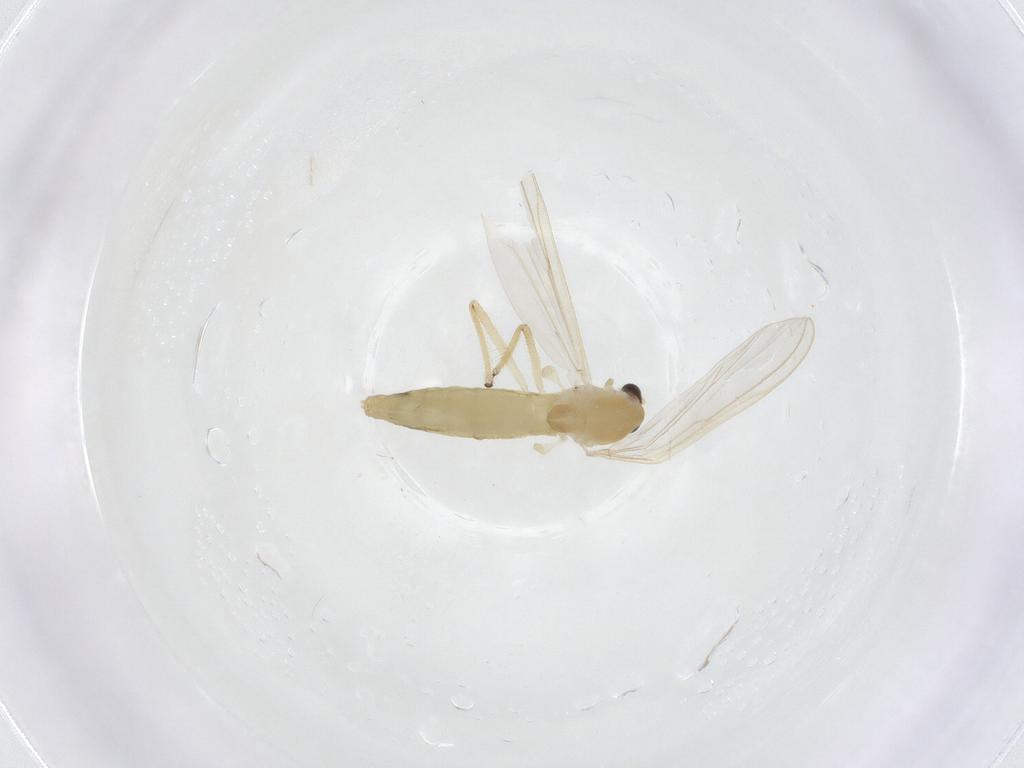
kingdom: Animalia
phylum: Arthropoda
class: Insecta
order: Diptera
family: Chironomidae
